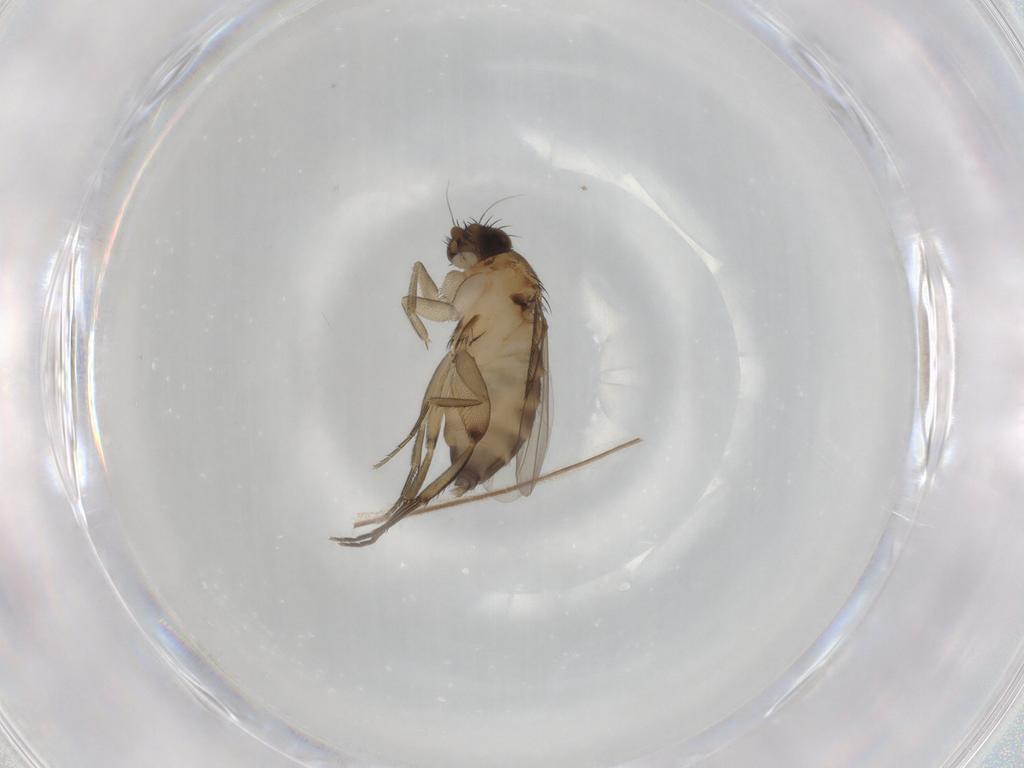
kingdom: Animalia
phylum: Arthropoda
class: Insecta
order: Diptera
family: Phoridae
